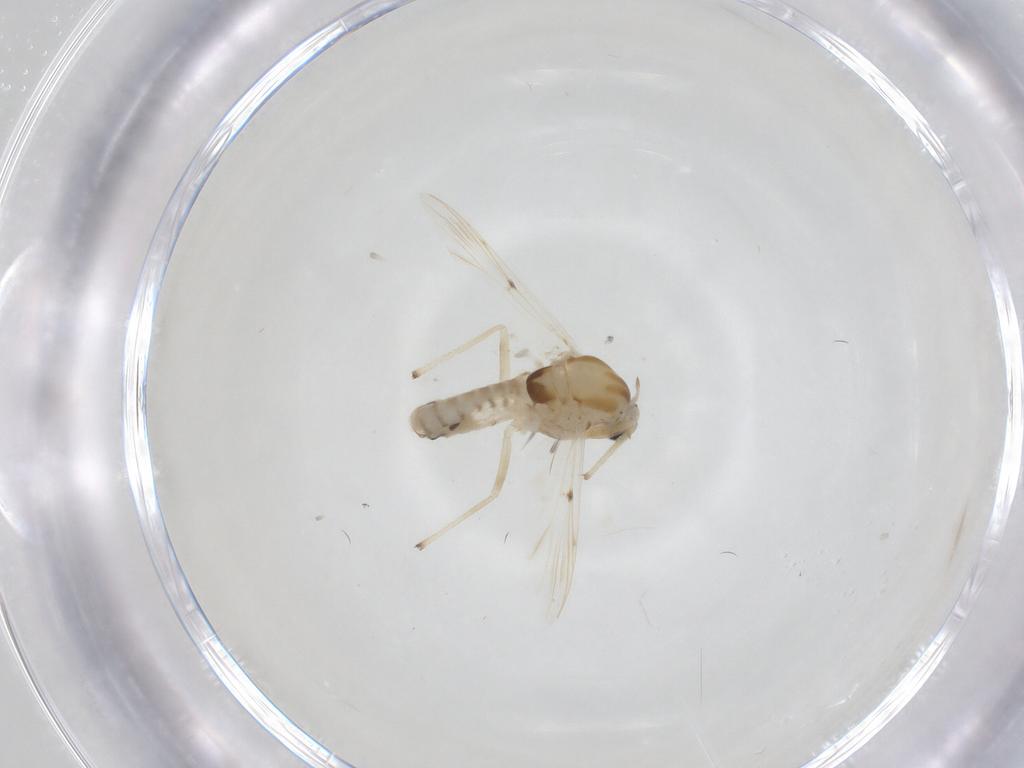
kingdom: Animalia
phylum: Arthropoda
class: Insecta
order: Diptera
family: Chironomidae
